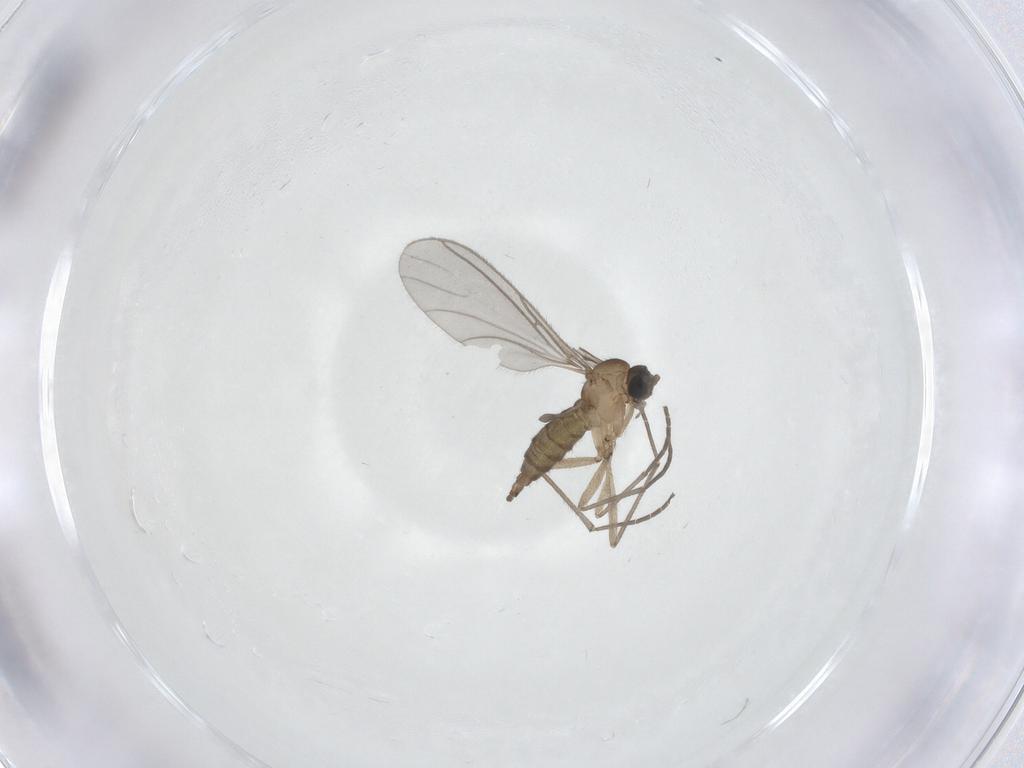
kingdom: Animalia
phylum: Arthropoda
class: Insecta
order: Diptera
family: Sciaridae
